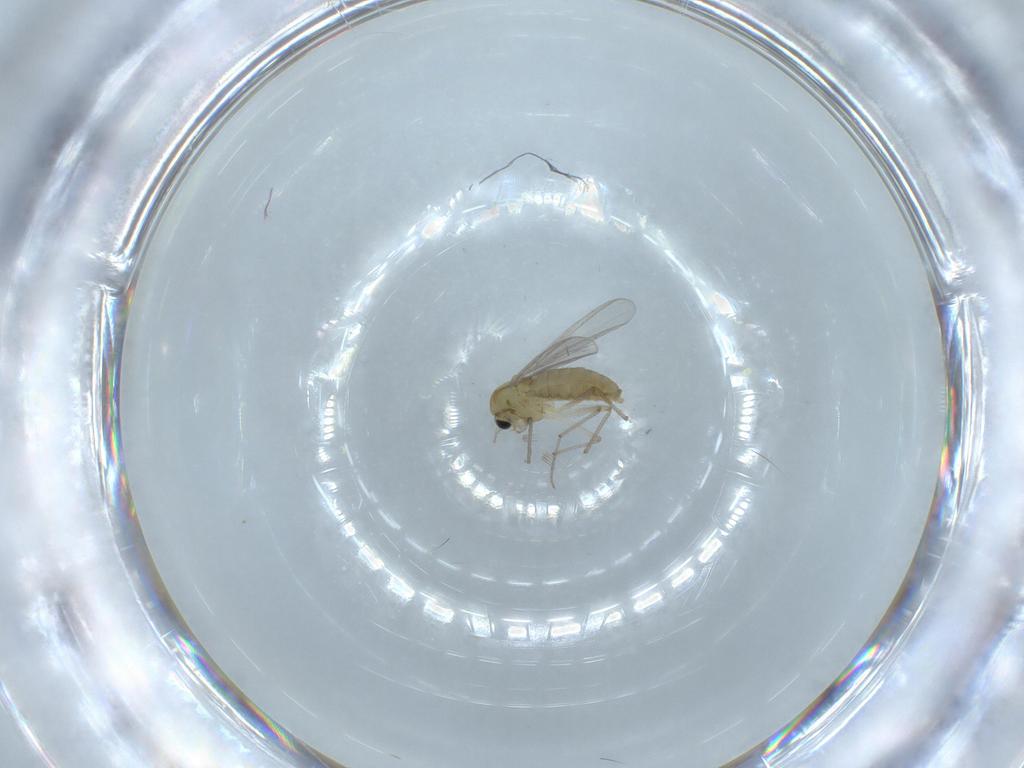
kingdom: Animalia
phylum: Arthropoda
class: Insecta
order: Diptera
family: Chironomidae
